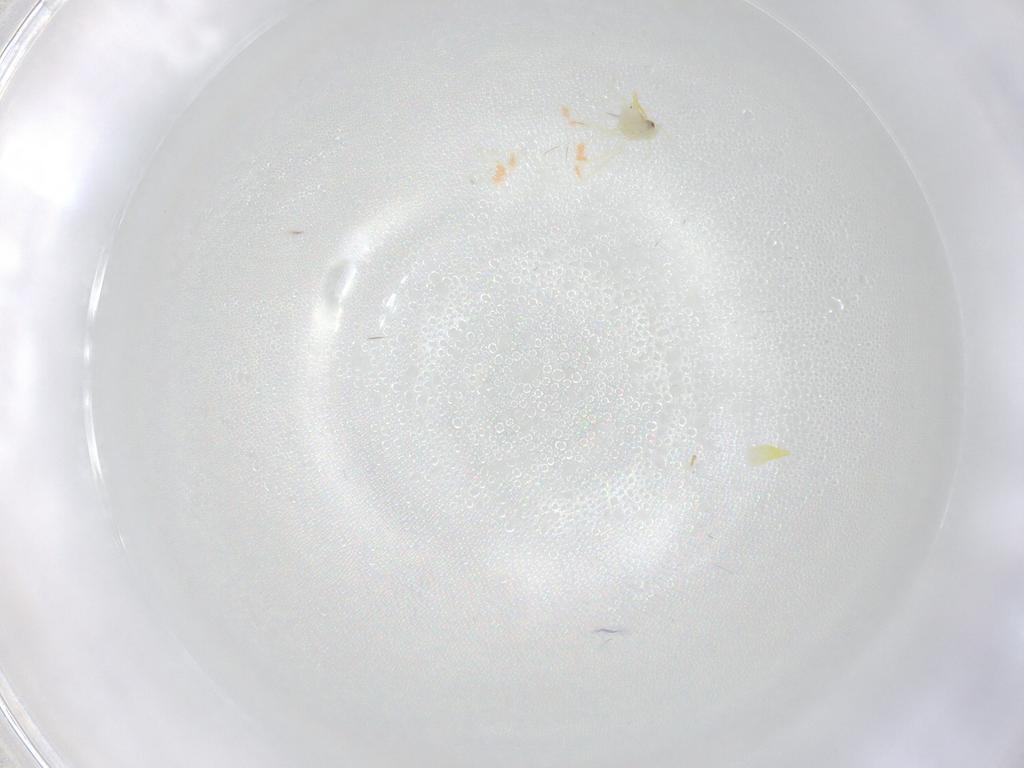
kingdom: Animalia
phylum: Arthropoda
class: Insecta
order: Hemiptera
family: Aleyrodidae
